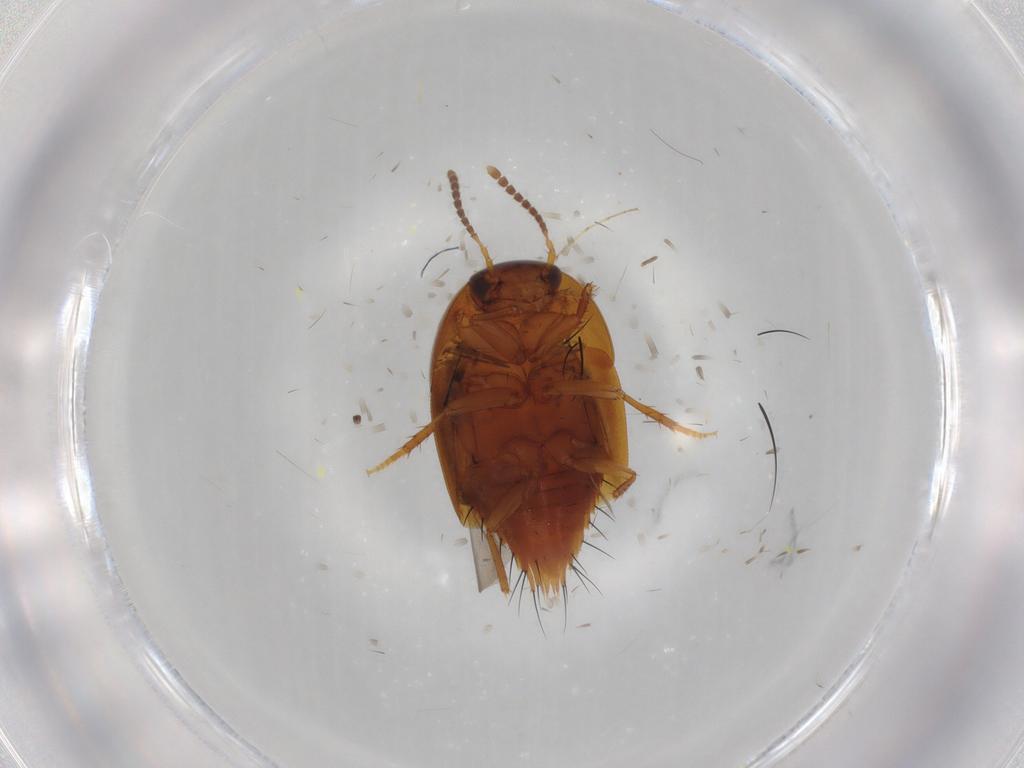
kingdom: Animalia
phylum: Arthropoda
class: Insecta
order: Coleoptera
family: Staphylinidae
